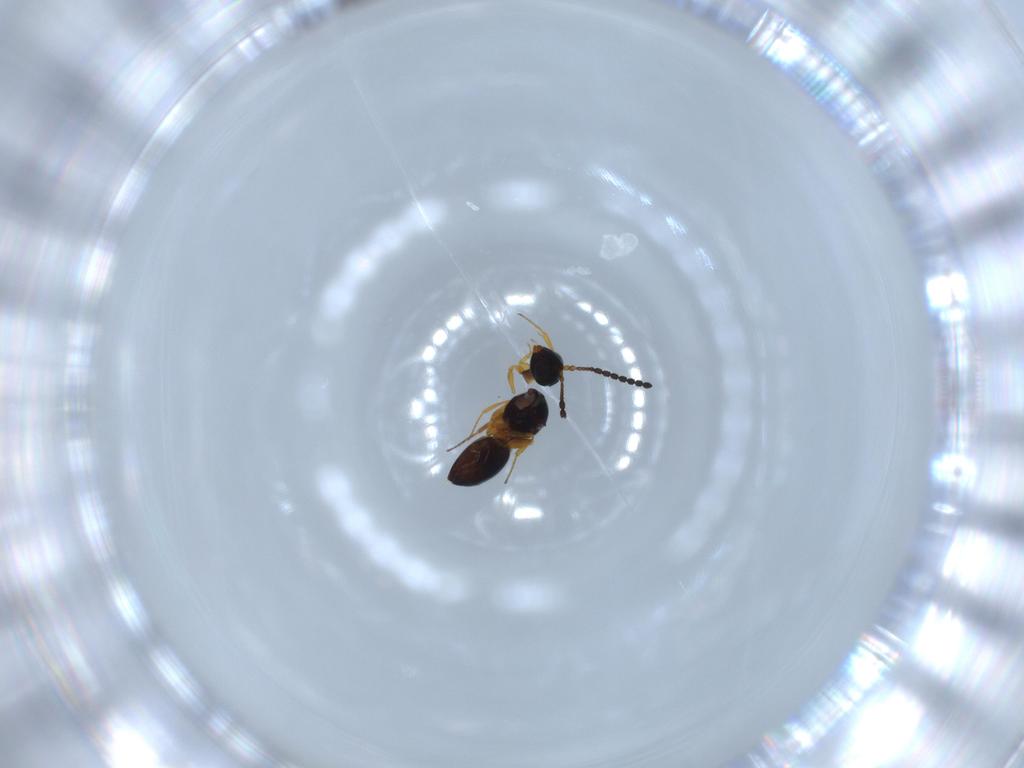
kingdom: Animalia
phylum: Arthropoda
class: Insecta
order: Hymenoptera
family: Figitidae
